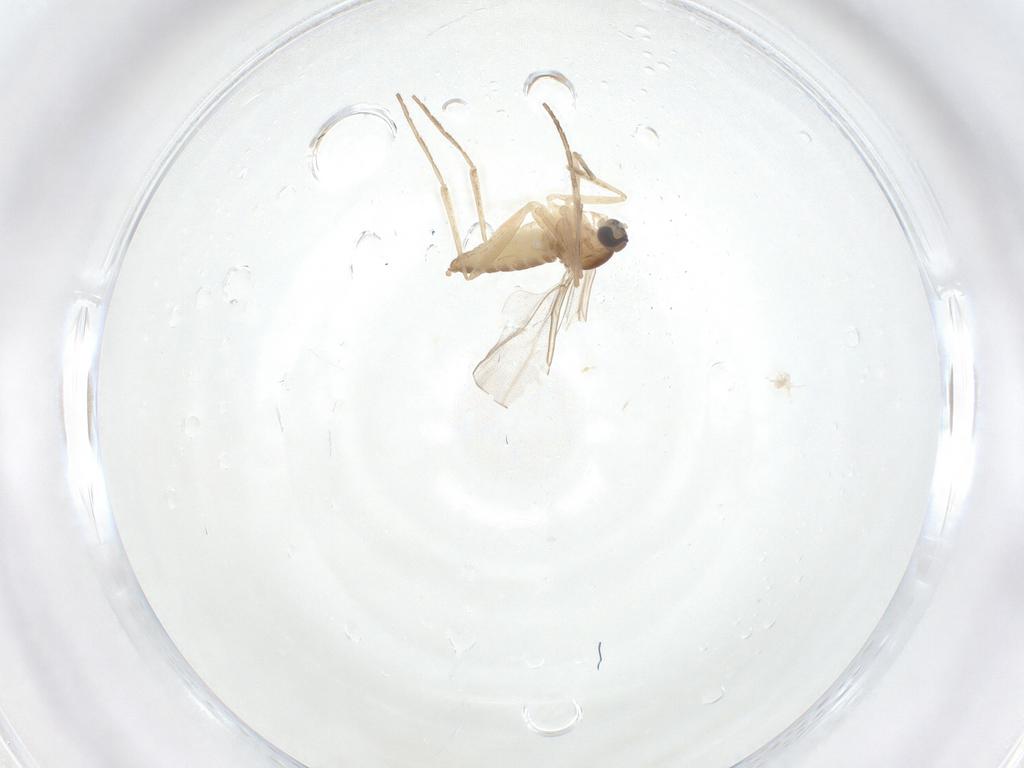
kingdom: Animalia
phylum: Arthropoda
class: Insecta
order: Diptera
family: Cecidomyiidae
